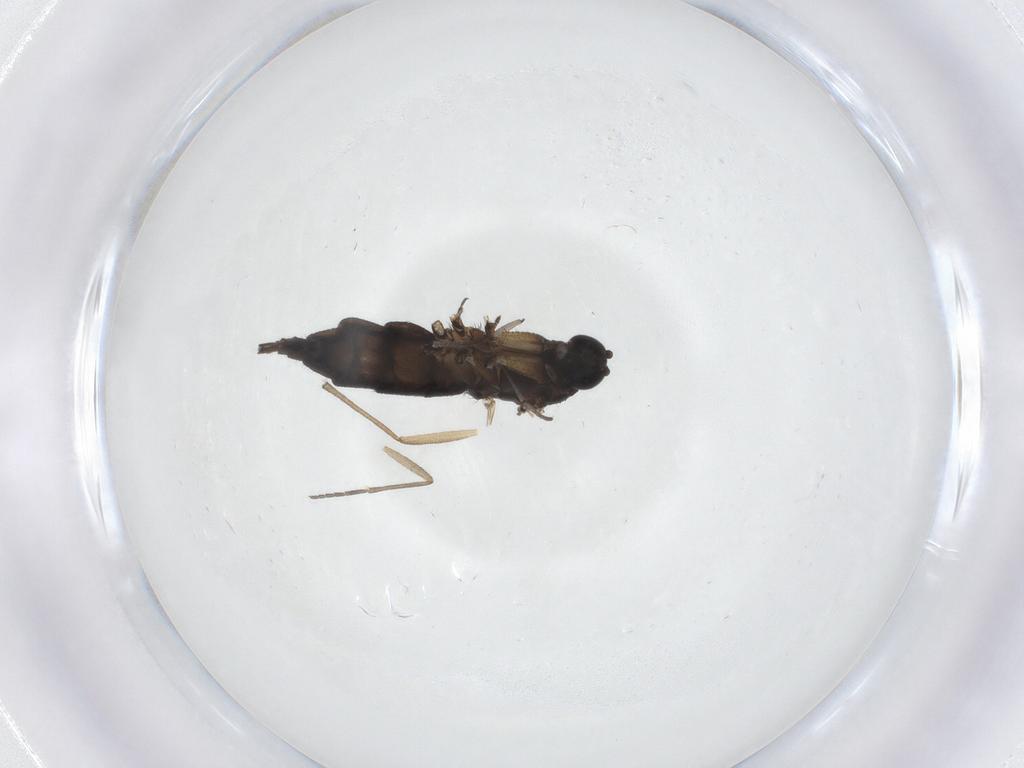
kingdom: Animalia
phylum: Arthropoda
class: Insecta
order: Diptera
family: Sciaridae
